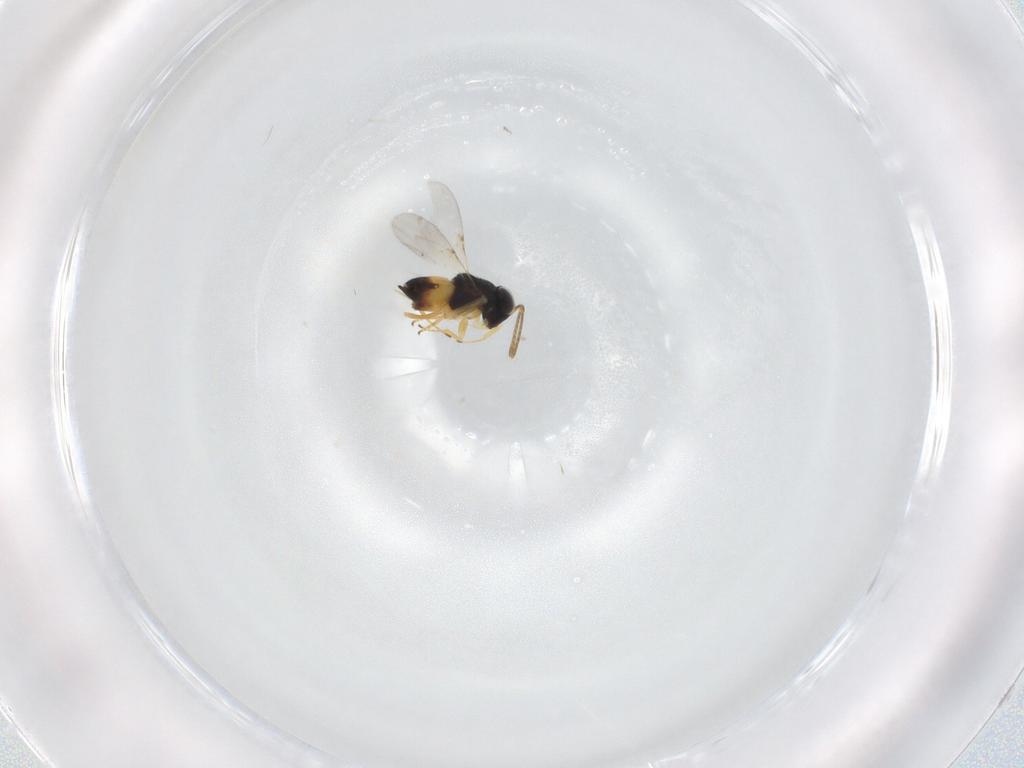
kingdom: Animalia
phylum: Arthropoda
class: Insecta
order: Hymenoptera
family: Encyrtidae
